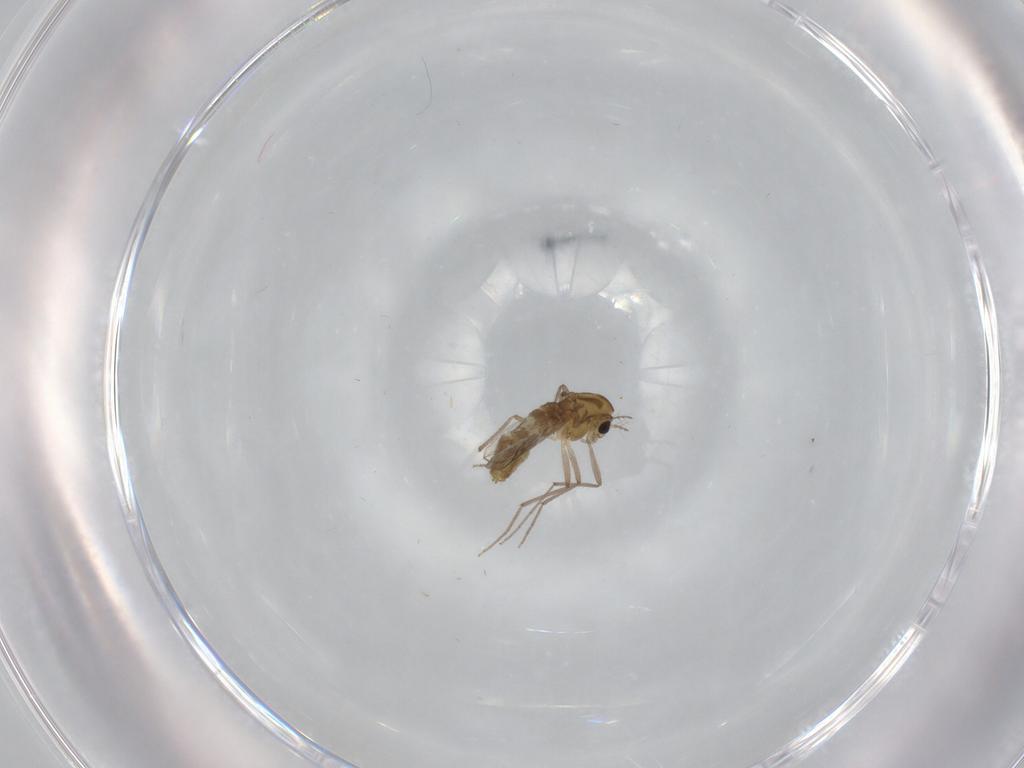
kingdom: Animalia
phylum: Arthropoda
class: Insecta
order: Diptera
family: Chironomidae
